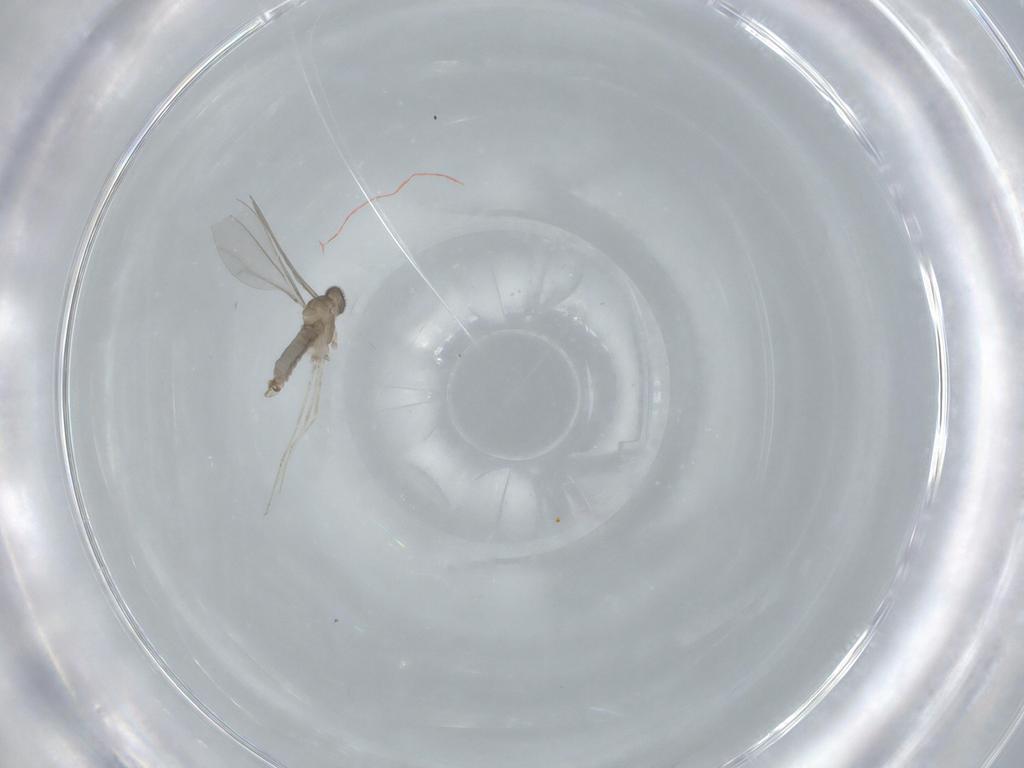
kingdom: Animalia
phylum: Arthropoda
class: Insecta
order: Diptera
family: Cecidomyiidae
